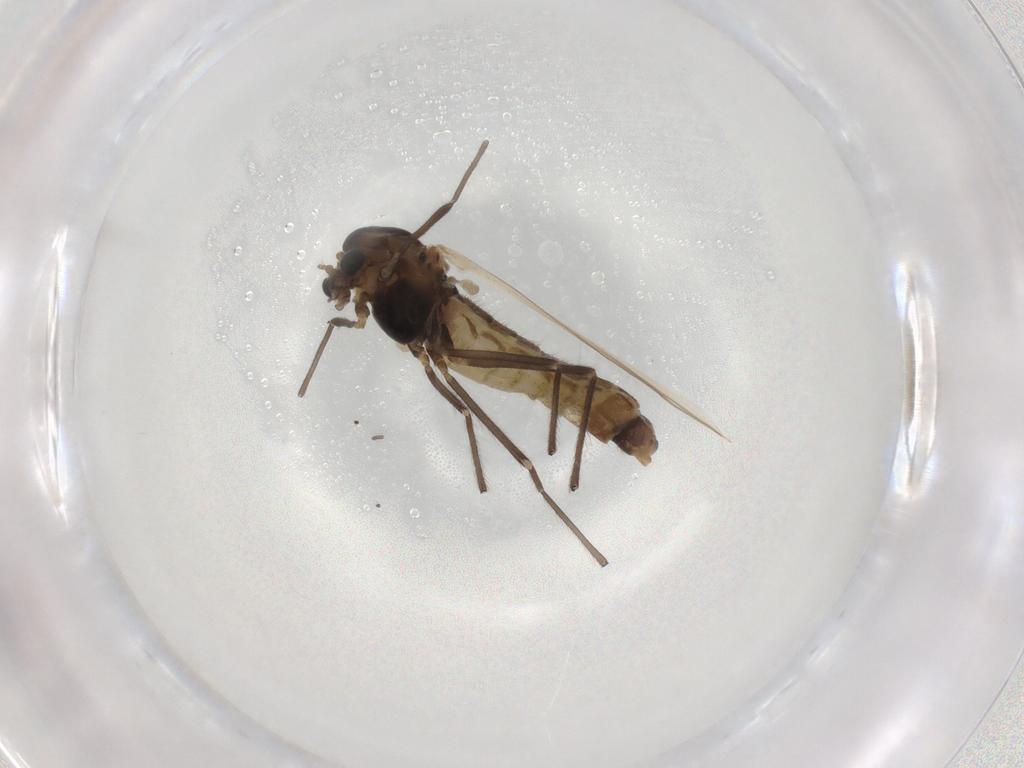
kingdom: Animalia
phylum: Arthropoda
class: Insecta
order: Diptera
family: Chironomidae
